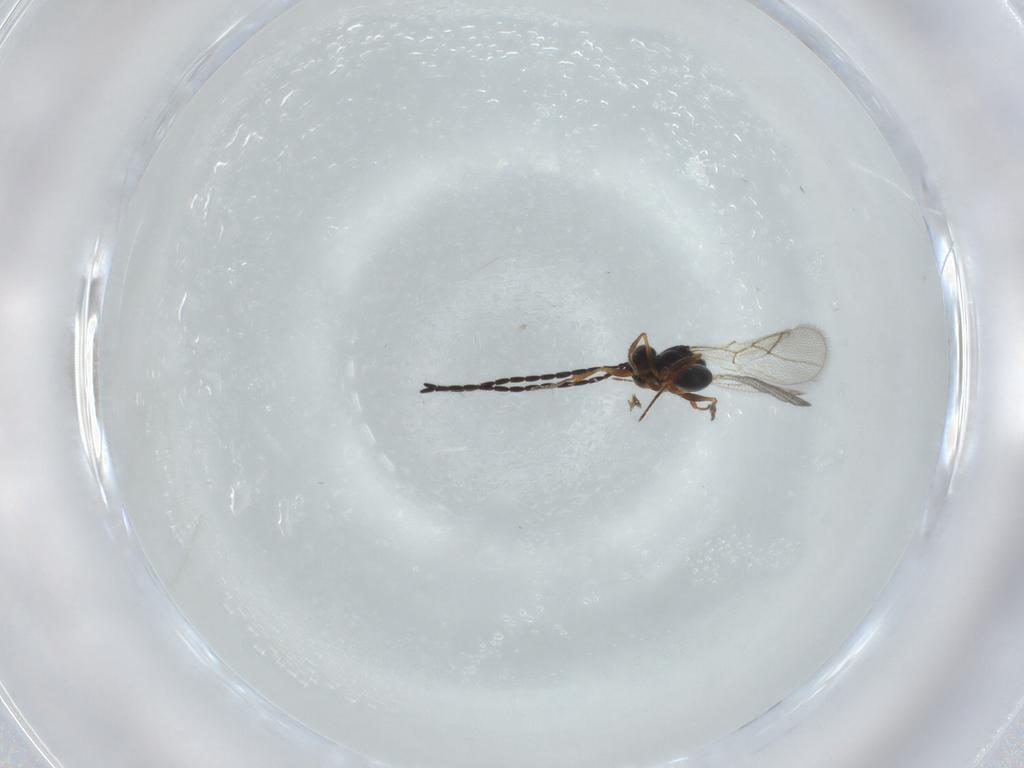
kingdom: Animalia
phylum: Arthropoda
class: Insecta
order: Hymenoptera
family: Figitidae
